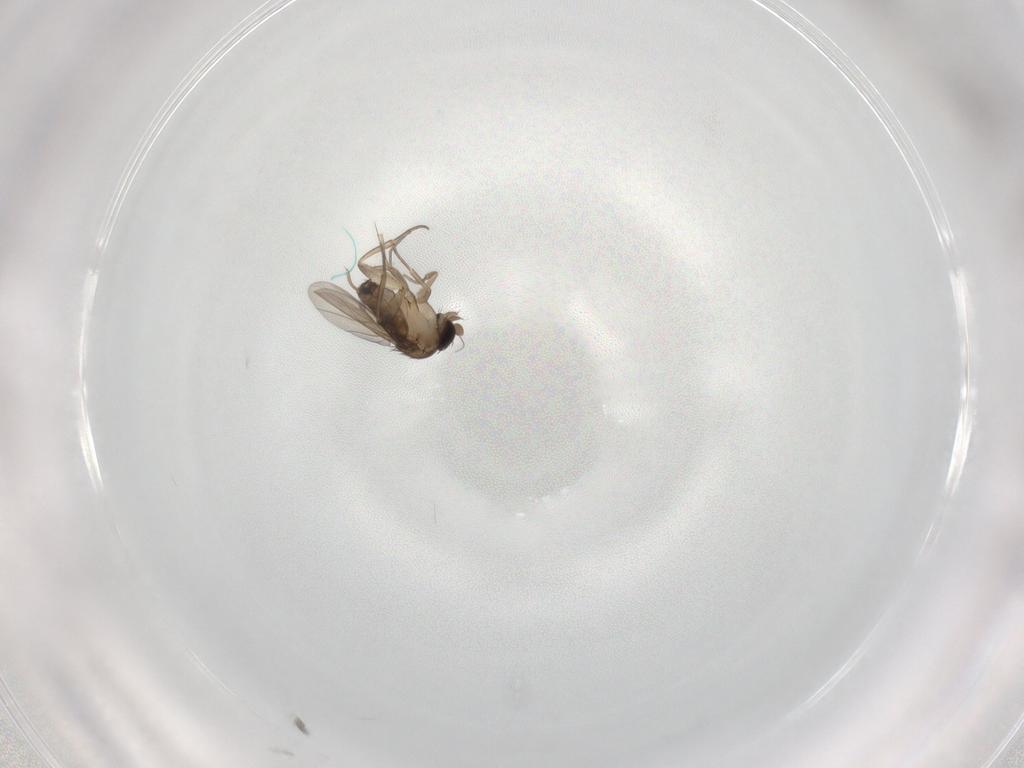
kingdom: Animalia
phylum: Arthropoda
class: Insecta
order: Diptera
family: Phoridae
